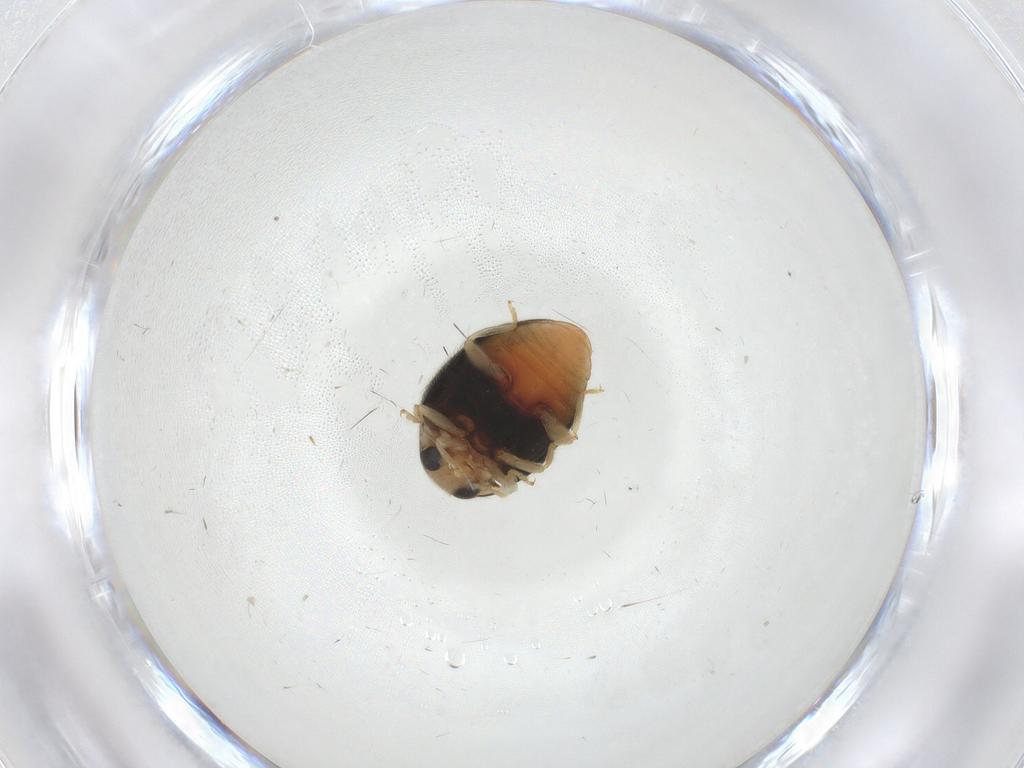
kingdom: Animalia
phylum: Arthropoda
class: Insecta
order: Coleoptera
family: Coccinellidae
